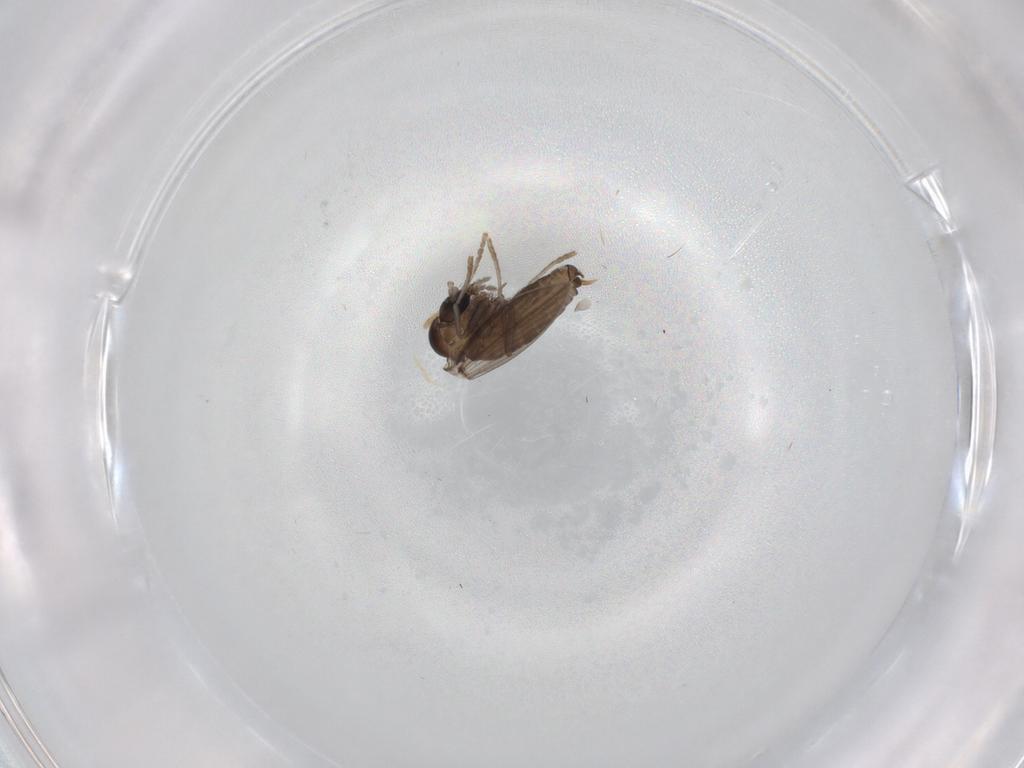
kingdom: Animalia
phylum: Arthropoda
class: Insecta
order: Diptera
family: Psychodidae
